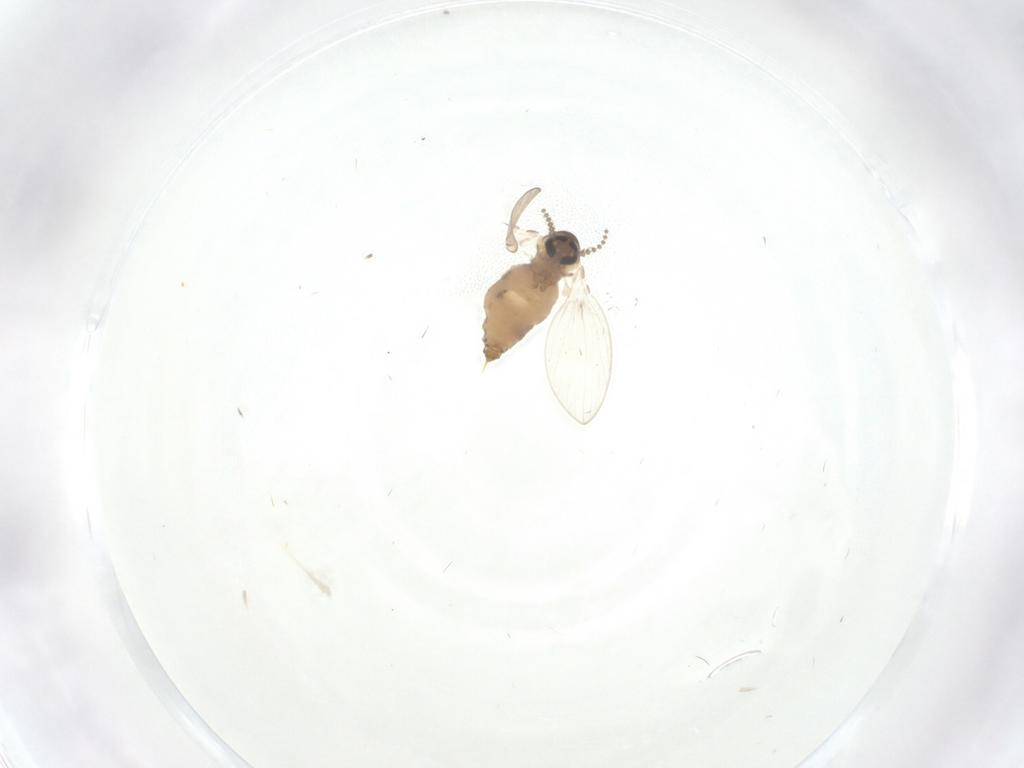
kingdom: Animalia
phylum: Arthropoda
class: Insecta
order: Diptera
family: Psychodidae
